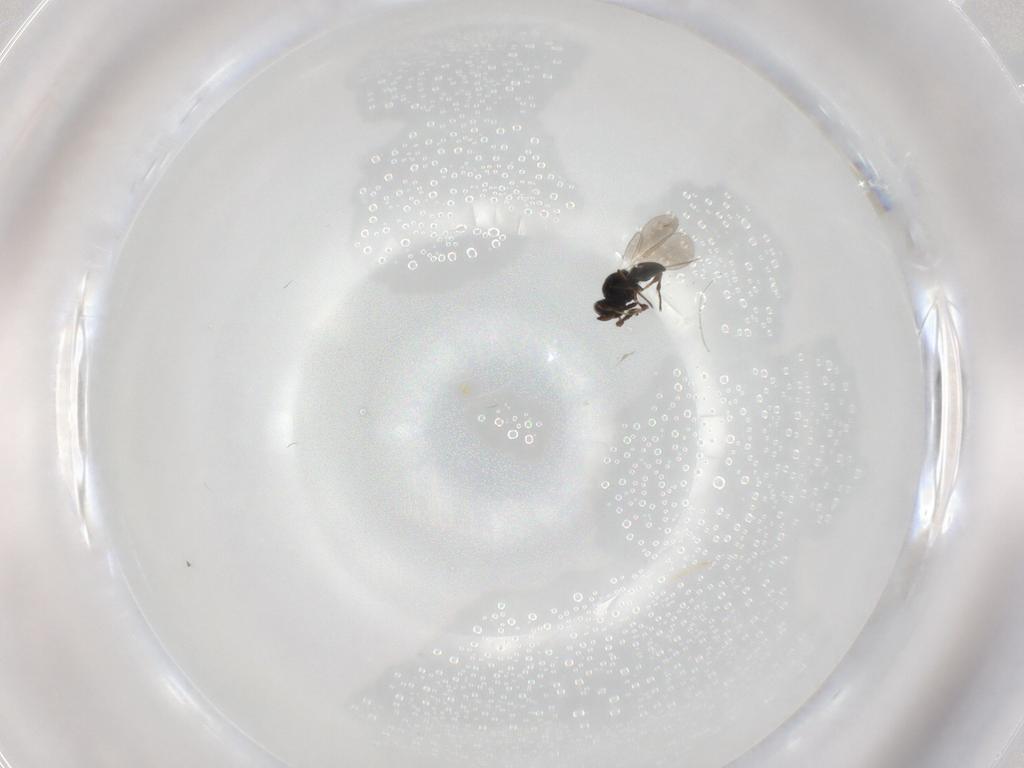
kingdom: Animalia
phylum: Arthropoda
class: Insecta
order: Hymenoptera
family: Platygastridae
